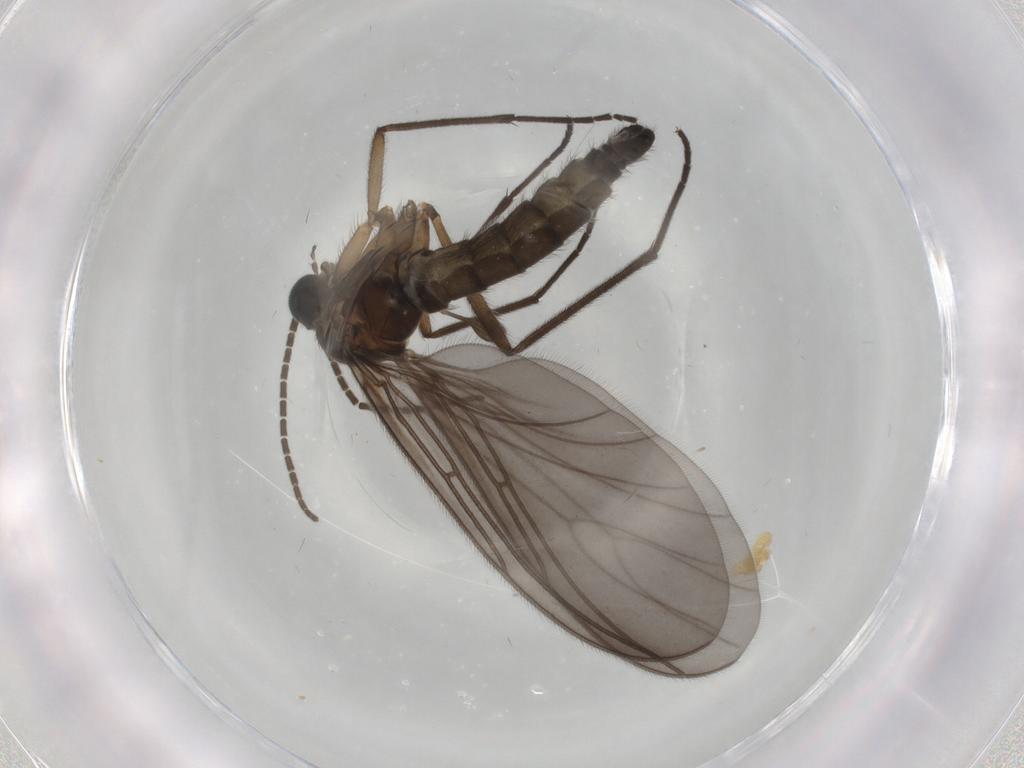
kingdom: Animalia
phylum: Arthropoda
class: Insecta
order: Diptera
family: Sciaridae
